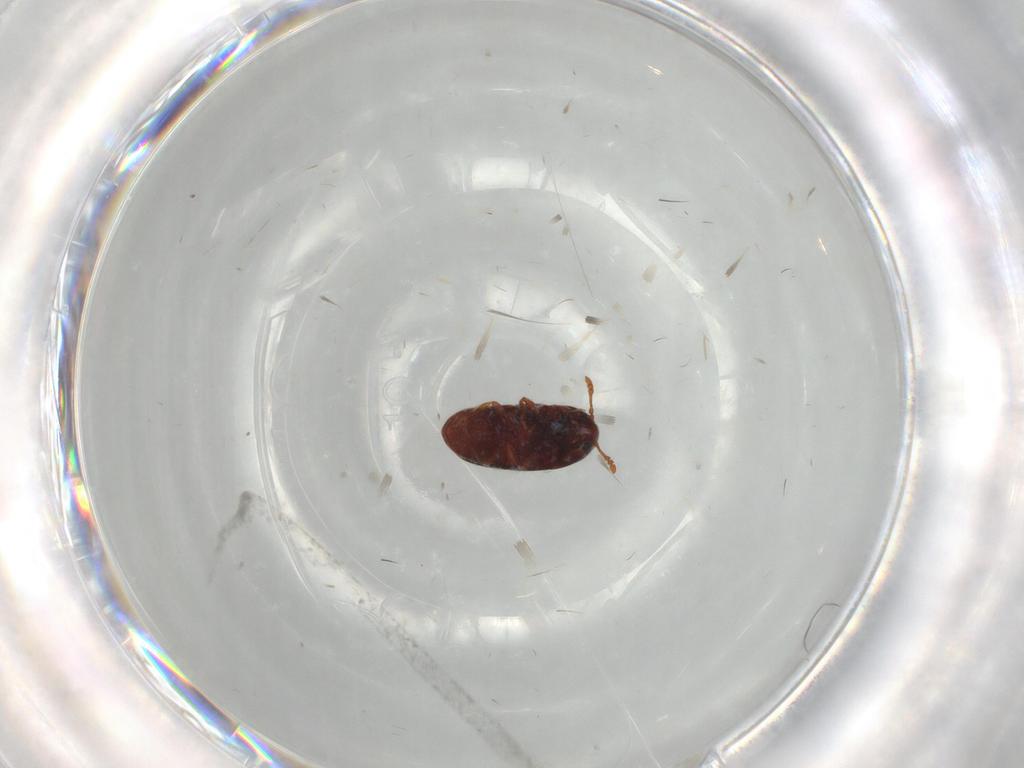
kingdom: Animalia
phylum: Arthropoda
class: Insecta
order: Coleoptera
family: Throscidae
